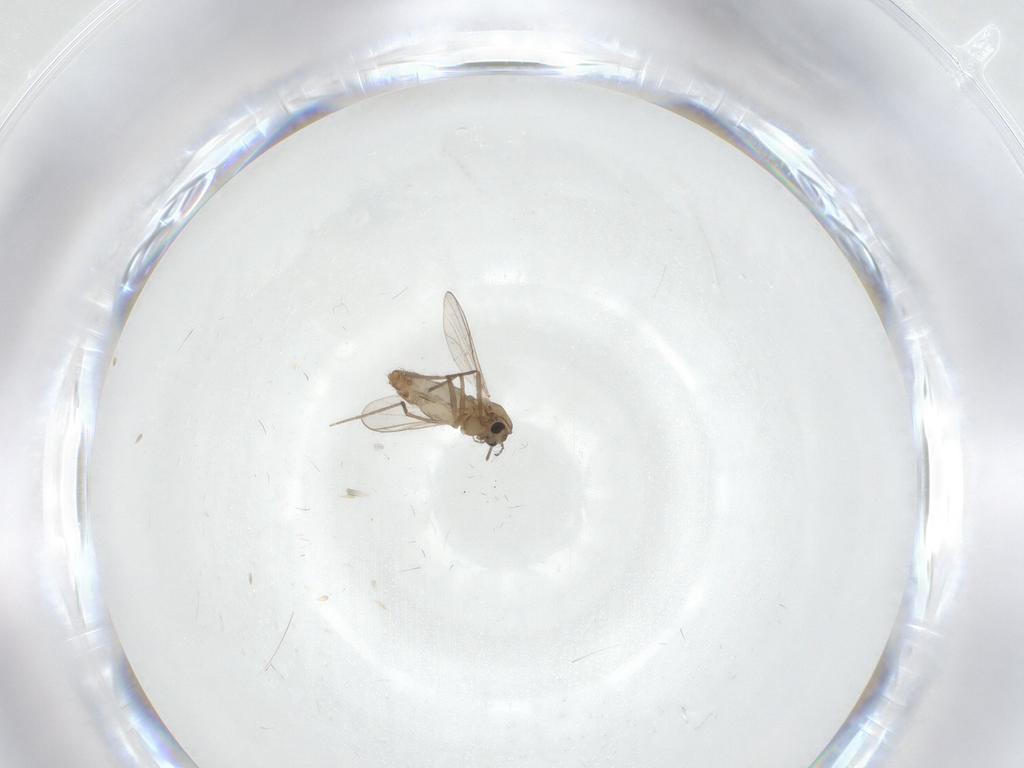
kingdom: Animalia
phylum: Arthropoda
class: Insecta
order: Diptera
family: Chironomidae
